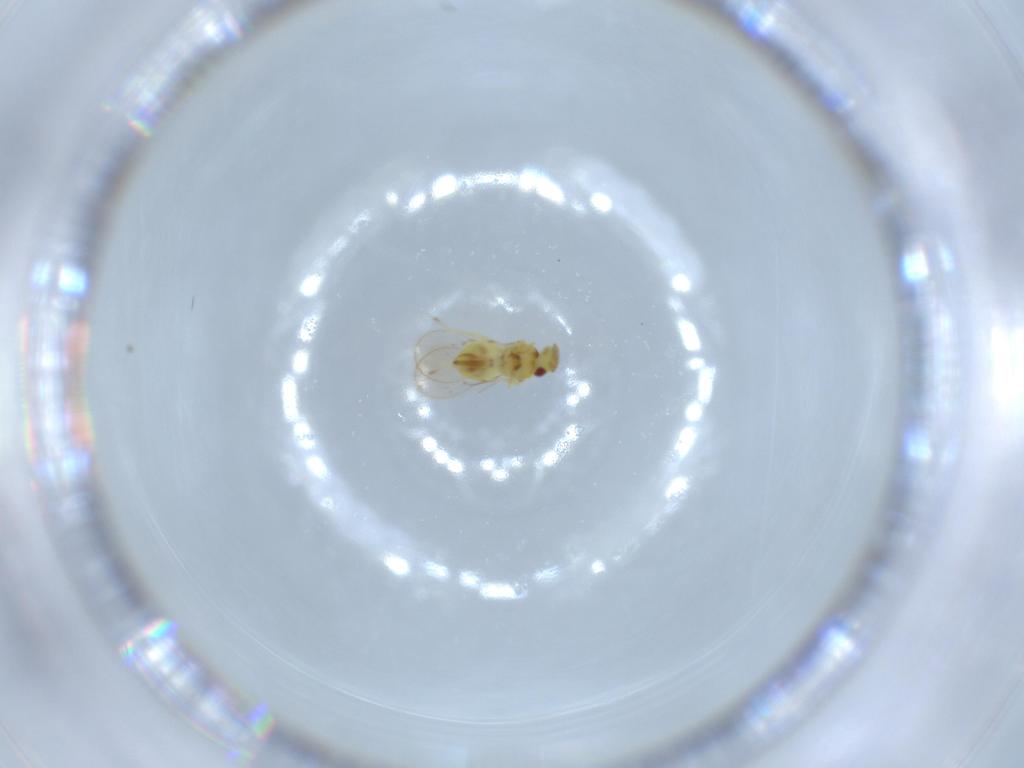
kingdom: Animalia
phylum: Arthropoda
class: Insecta
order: Hymenoptera
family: Eulophidae
